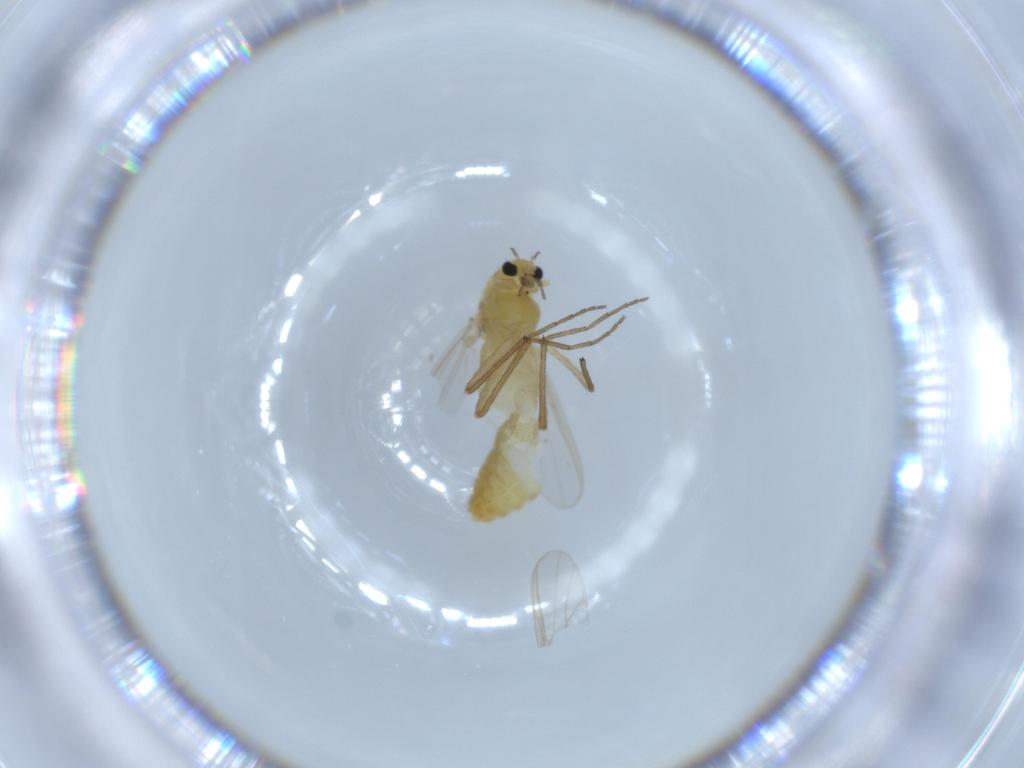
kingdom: Animalia
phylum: Arthropoda
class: Insecta
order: Diptera
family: Chironomidae
